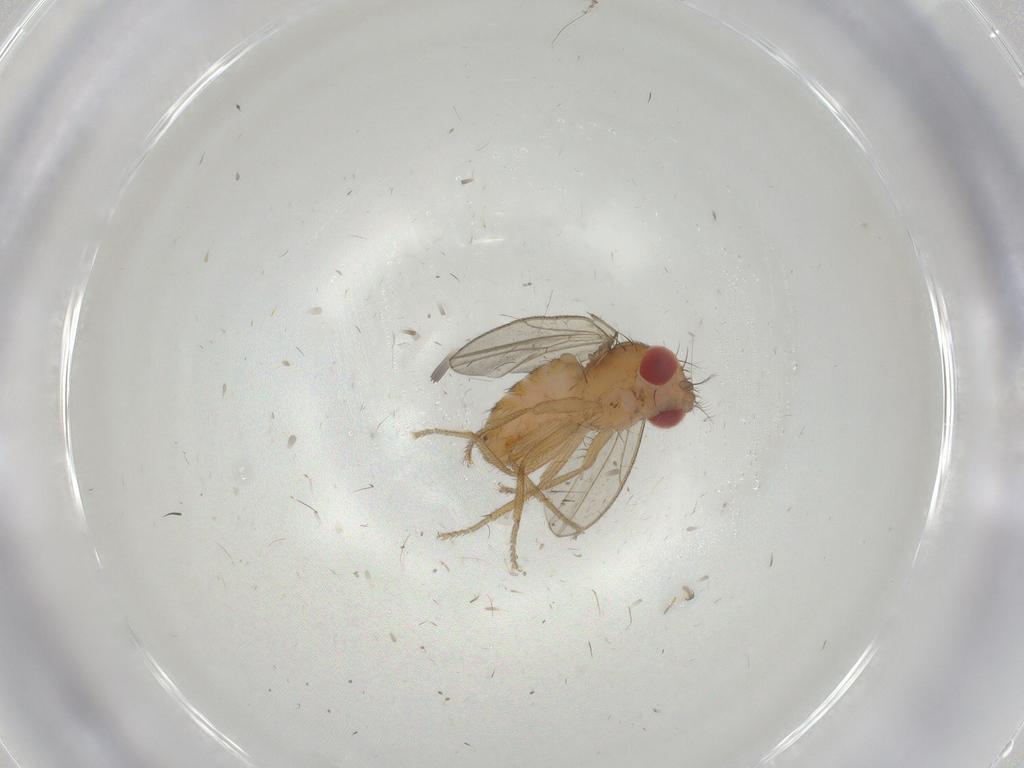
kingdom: Animalia
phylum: Arthropoda
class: Insecta
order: Diptera
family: Drosophilidae
